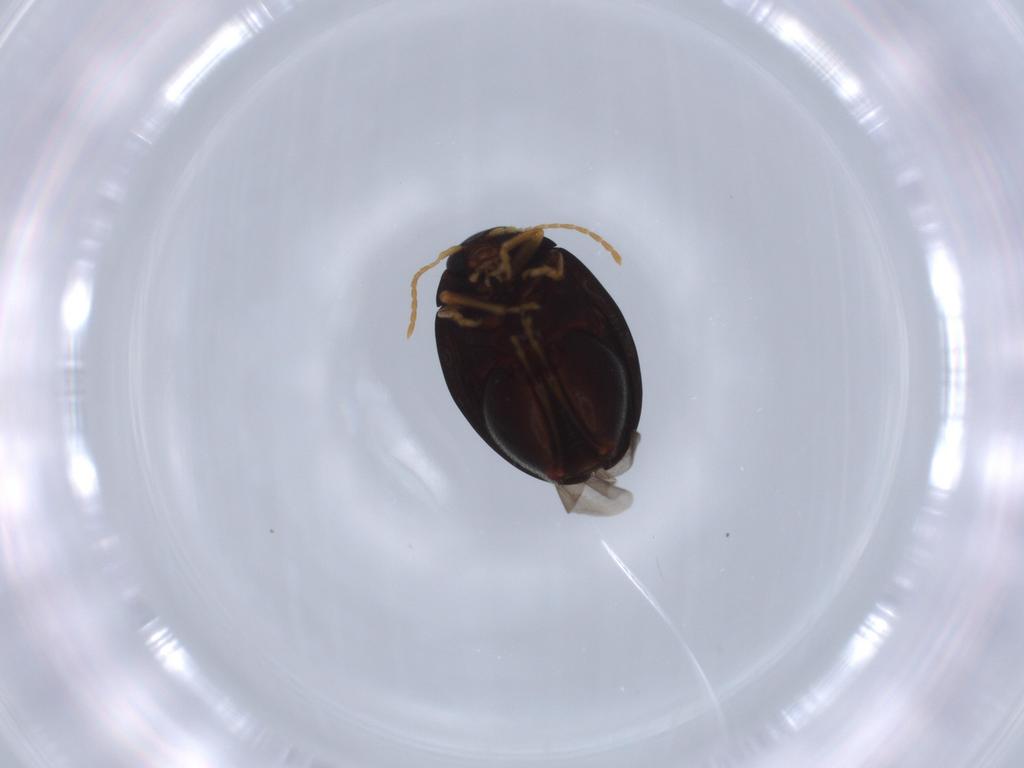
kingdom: Animalia
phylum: Arthropoda
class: Insecta
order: Coleoptera
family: Chrysomelidae
